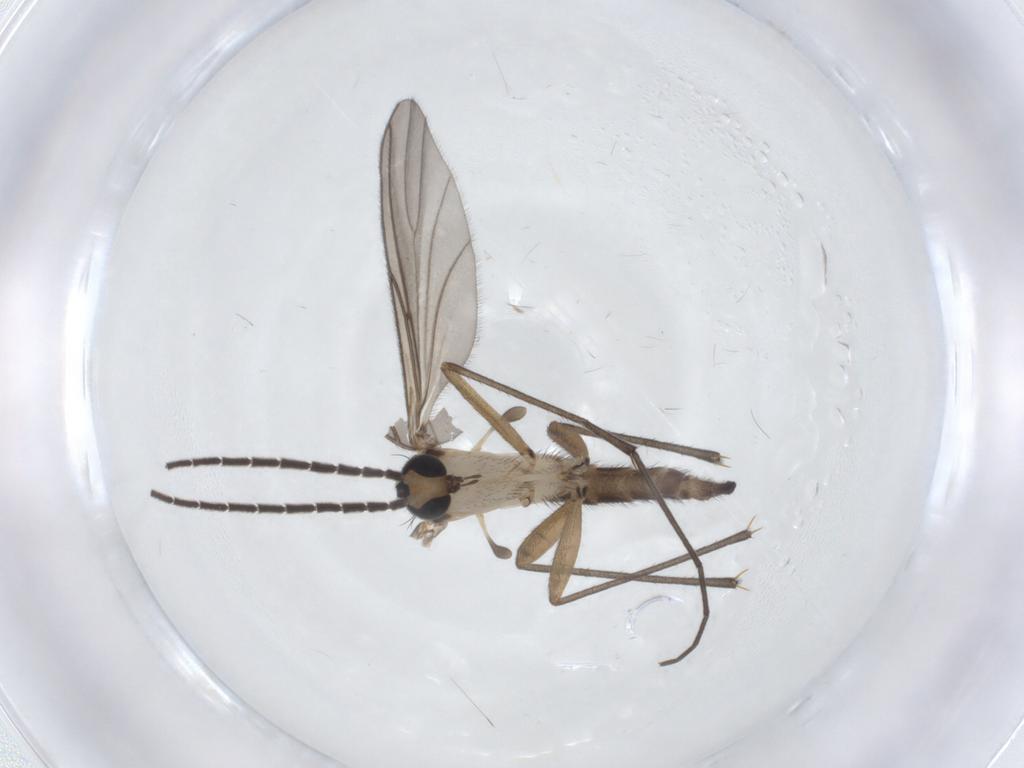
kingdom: Animalia
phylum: Arthropoda
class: Insecta
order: Diptera
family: Sciaridae
